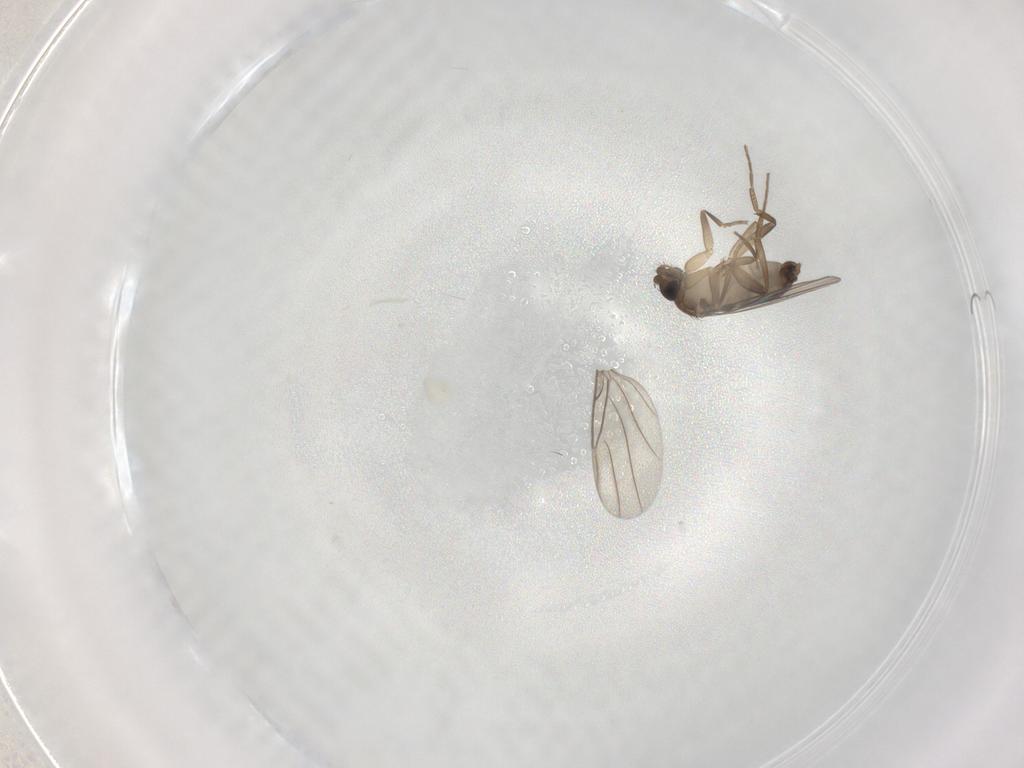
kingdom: Animalia
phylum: Arthropoda
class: Insecta
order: Diptera
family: Phoridae
